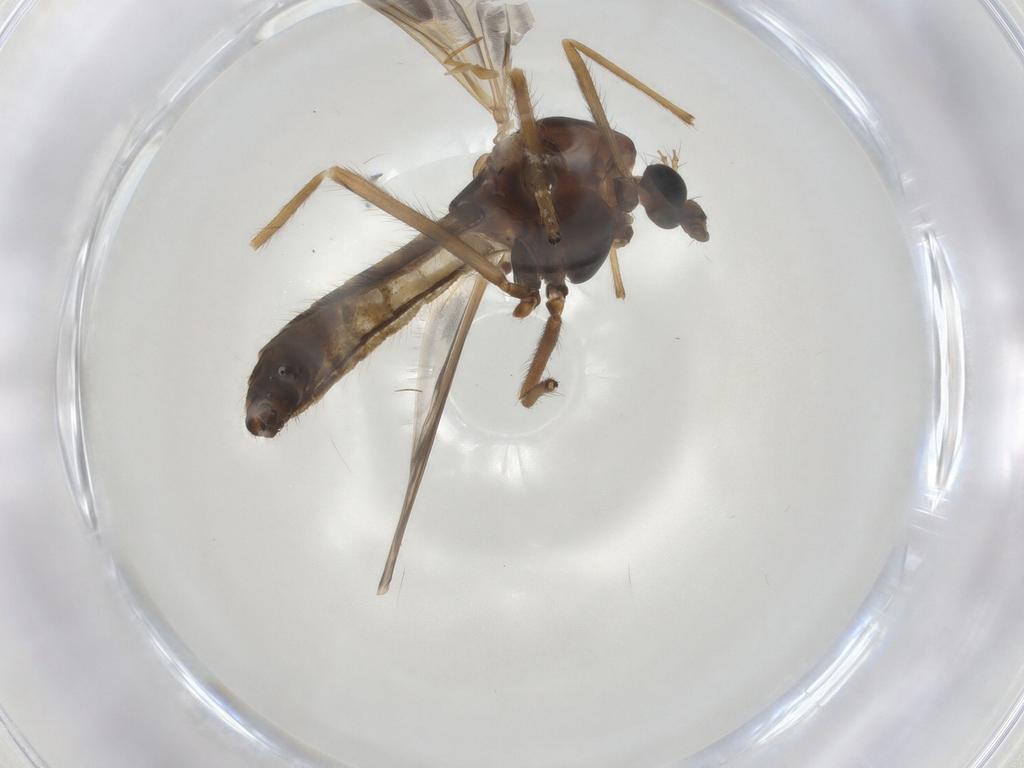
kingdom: Animalia
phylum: Arthropoda
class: Insecta
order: Diptera
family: Chironomidae
